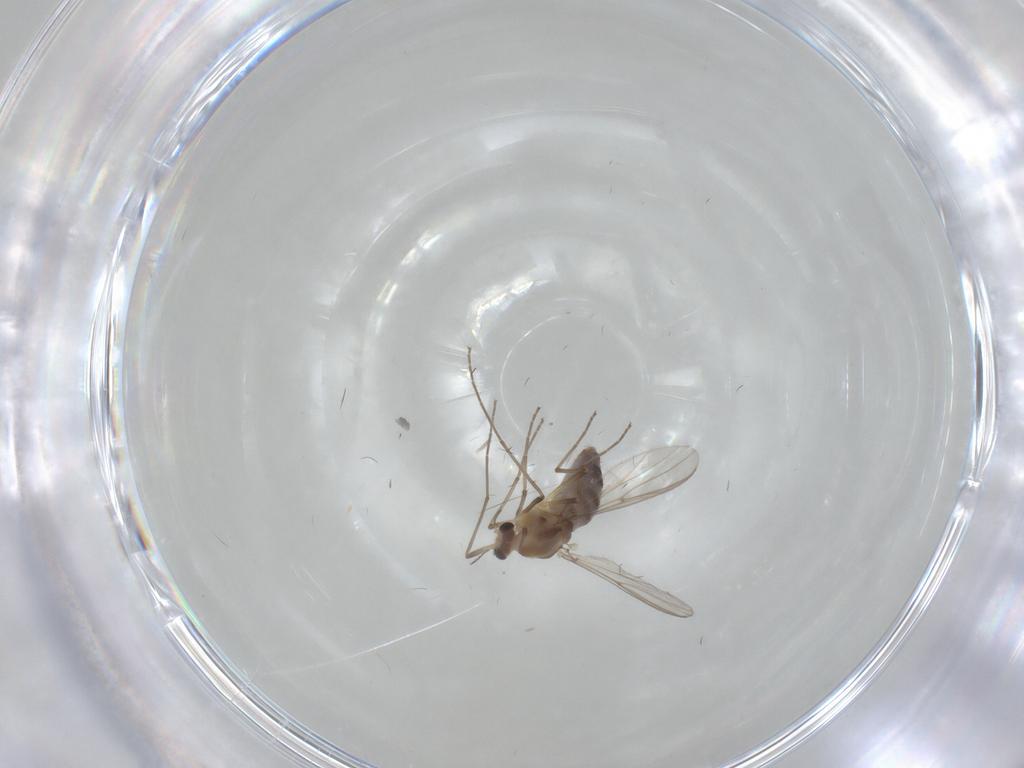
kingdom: Animalia
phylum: Arthropoda
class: Insecta
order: Diptera
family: Chironomidae
